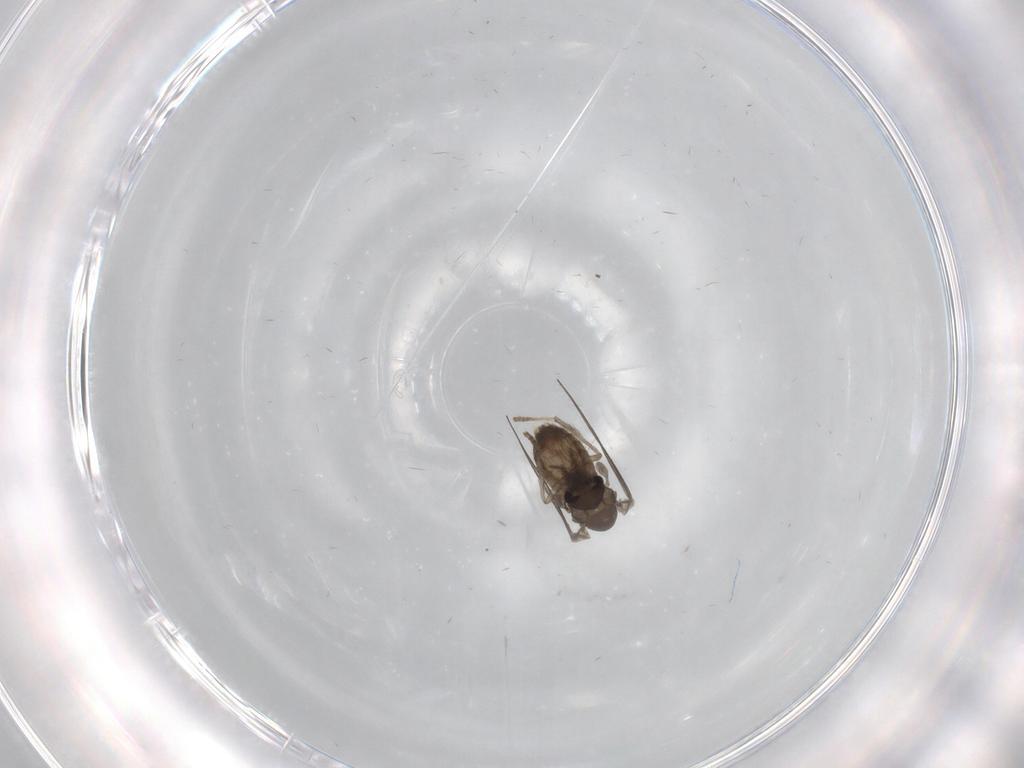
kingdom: Animalia
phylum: Arthropoda
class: Insecta
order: Diptera
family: Psychodidae
